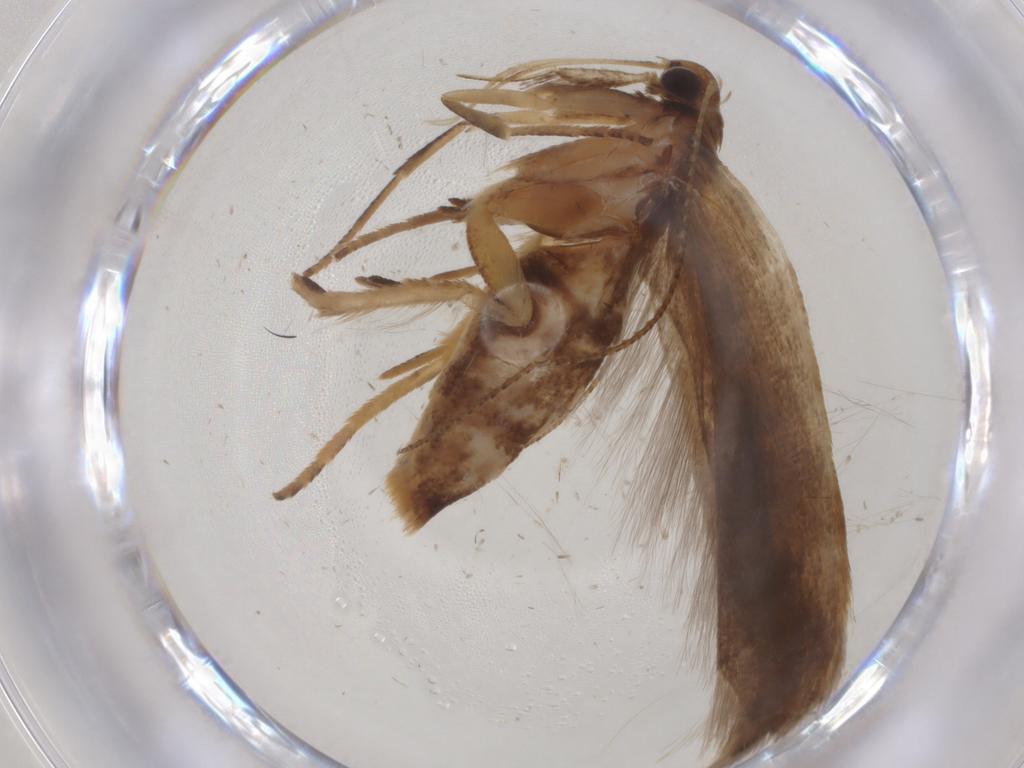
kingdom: Animalia
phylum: Arthropoda
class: Insecta
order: Lepidoptera
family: Gelechiidae
